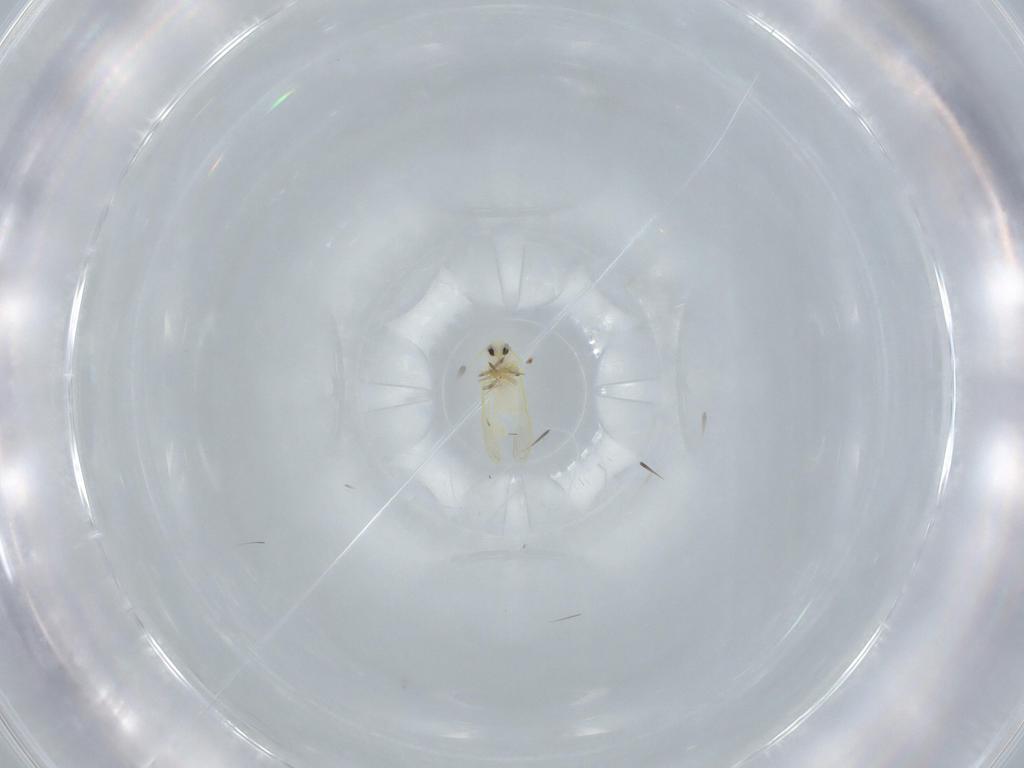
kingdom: Animalia
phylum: Arthropoda
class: Insecta
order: Hemiptera
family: Aleyrodidae
